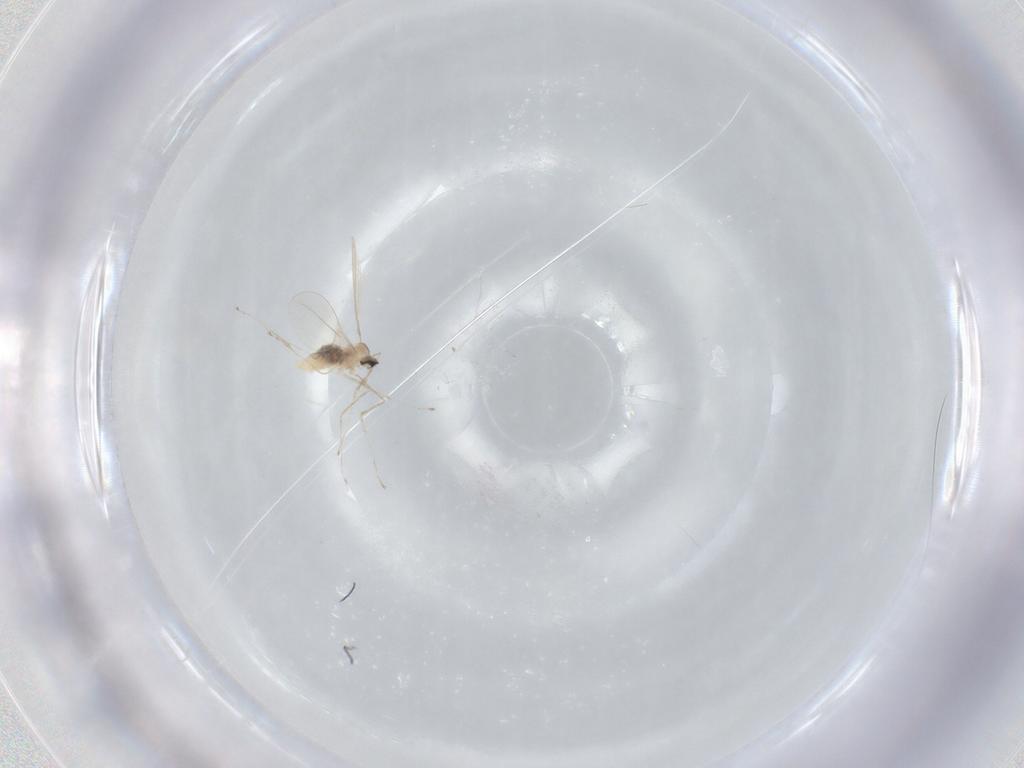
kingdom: Animalia
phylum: Arthropoda
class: Insecta
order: Diptera
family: Cecidomyiidae
